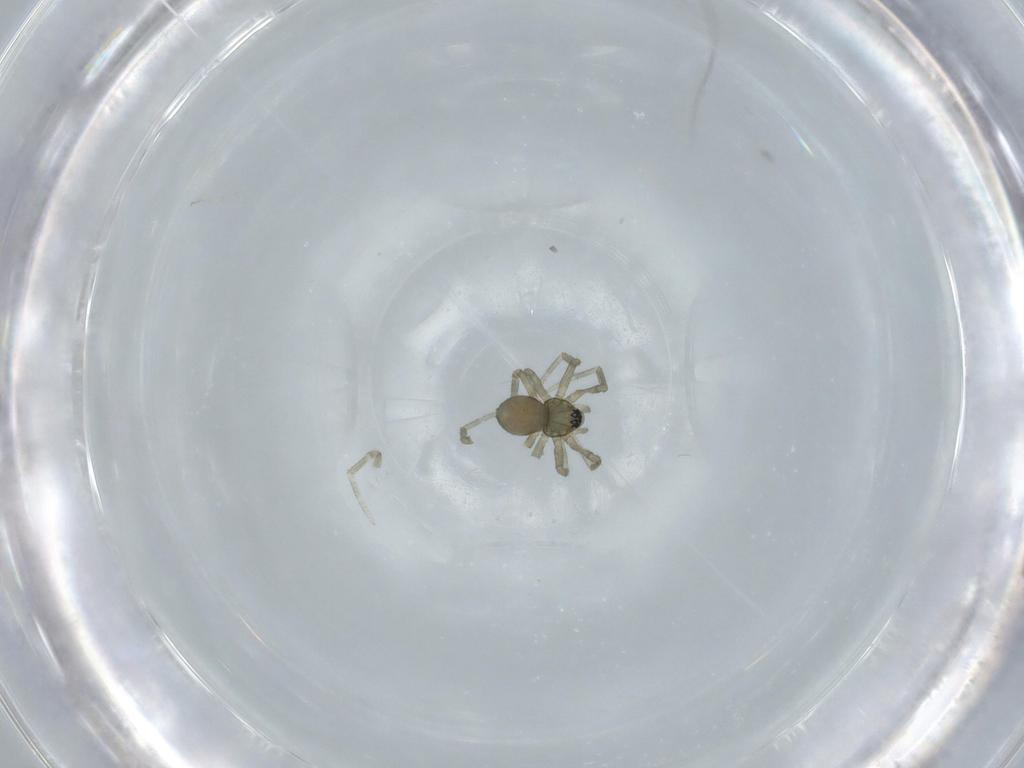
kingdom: Animalia
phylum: Arthropoda
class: Arachnida
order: Araneae
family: Linyphiidae
